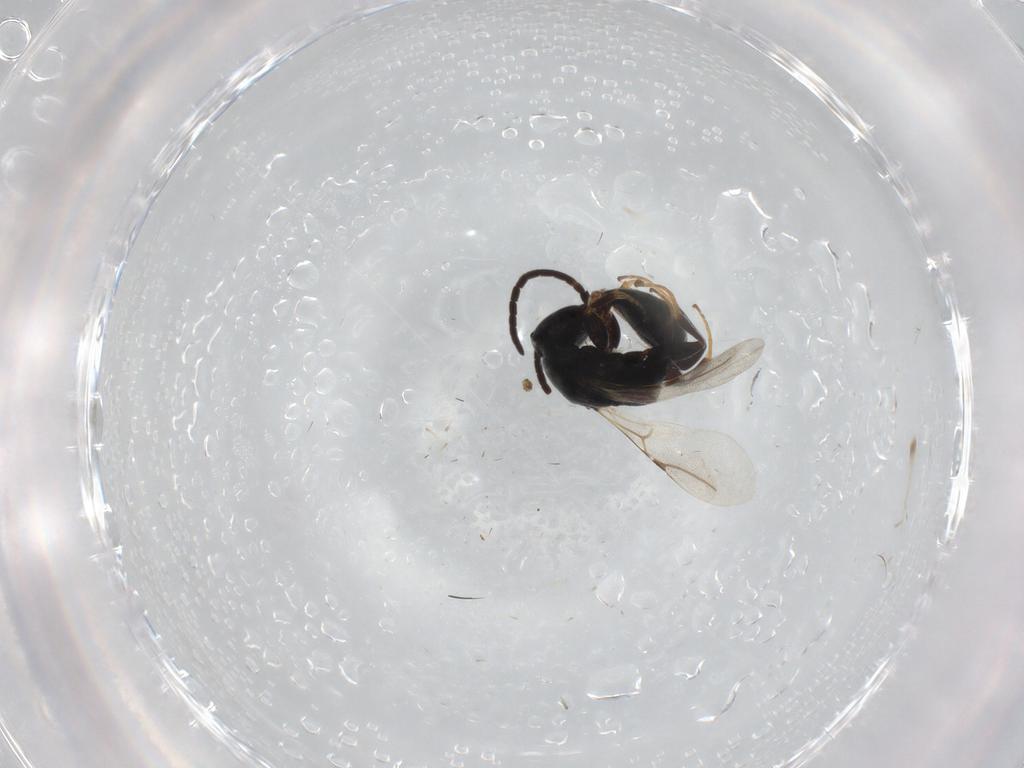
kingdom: Animalia
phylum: Arthropoda
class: Insecta
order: Hymenoptera
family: Bethylidae
